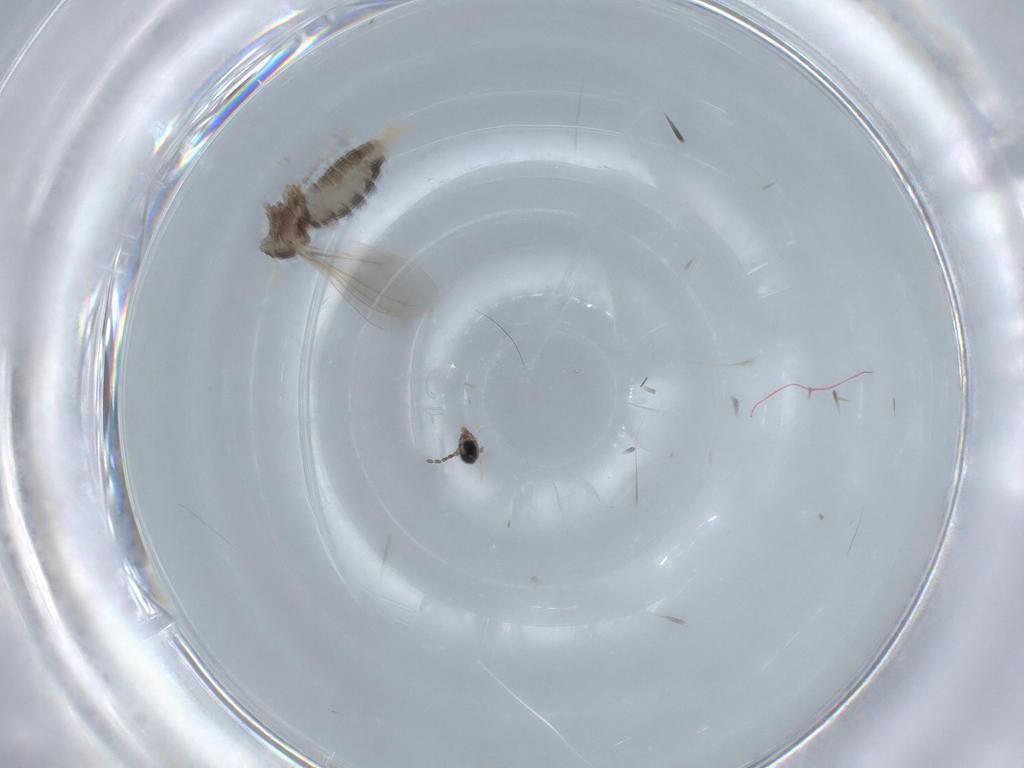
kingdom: Animalia
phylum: Arthropoda
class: Insecta
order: Diptera
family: Cecidomyiidae
